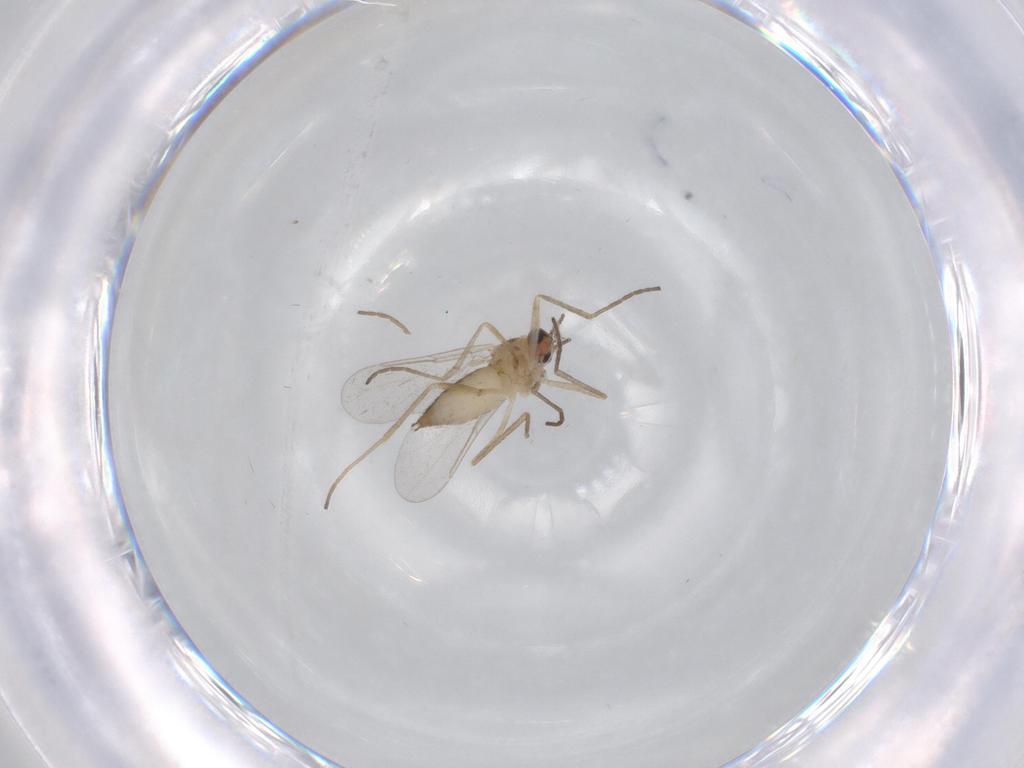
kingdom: Animalia
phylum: Arthropoda
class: Insecta
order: Diptera
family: Cecidomyiidae
